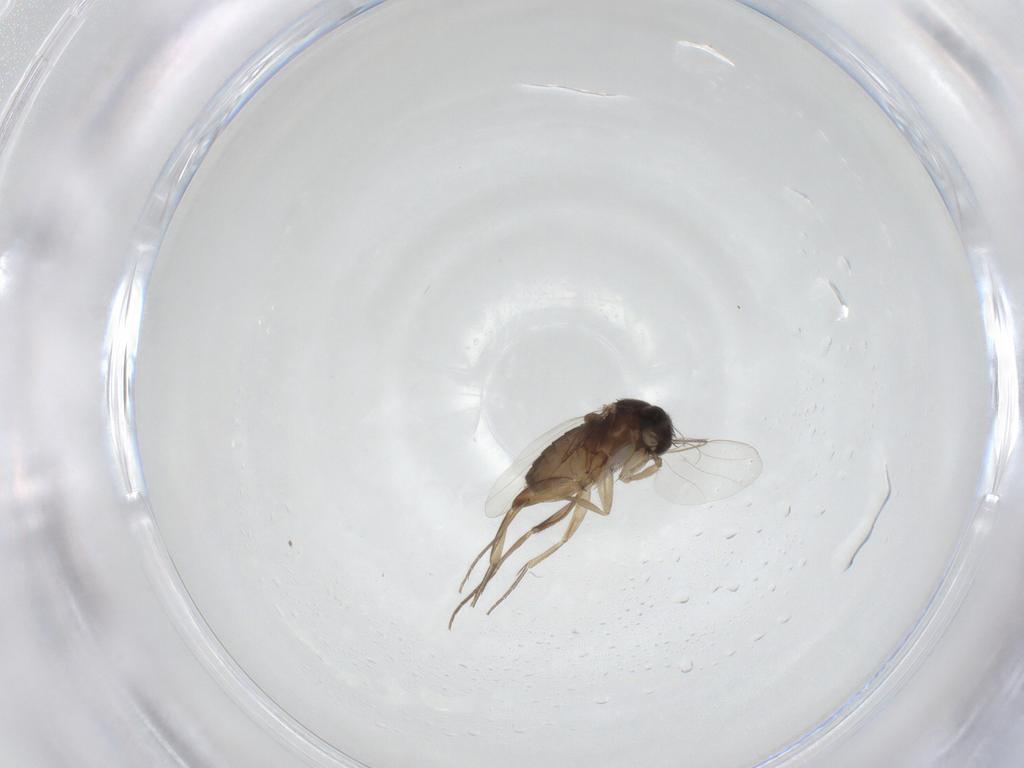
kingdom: Animalia
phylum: Arthropoda
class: Insecta
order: Diptera
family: Phoridae
